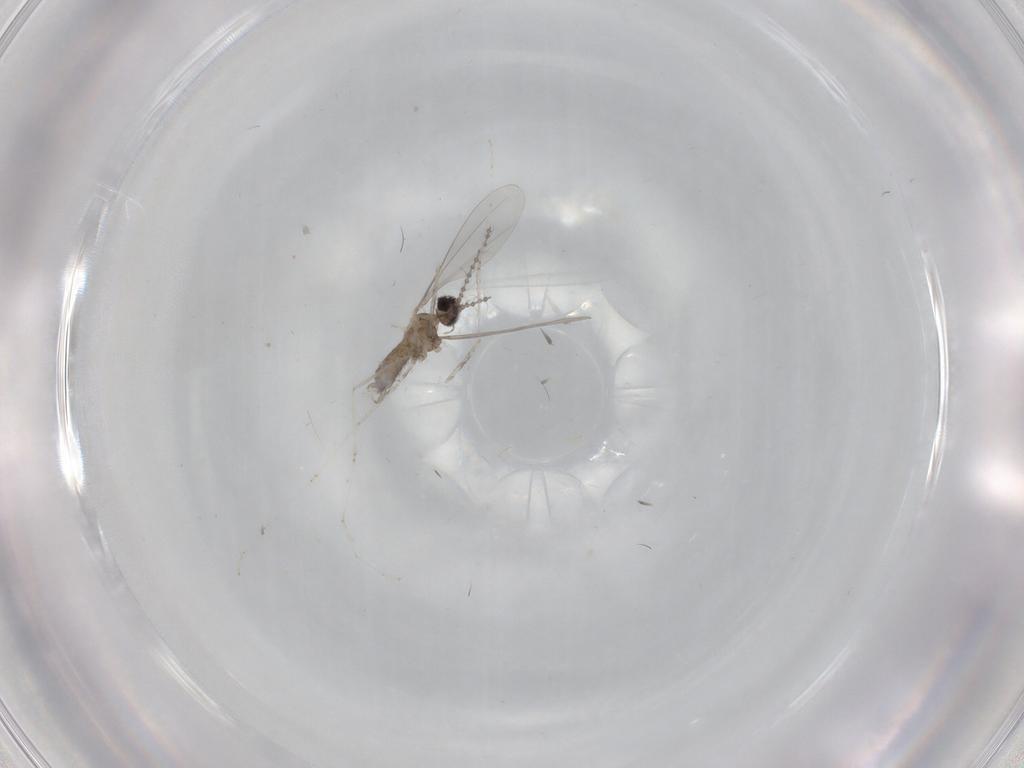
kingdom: Animalia
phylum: Arthropoda
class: Insecta
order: Diptera
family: Dolichopodidae
